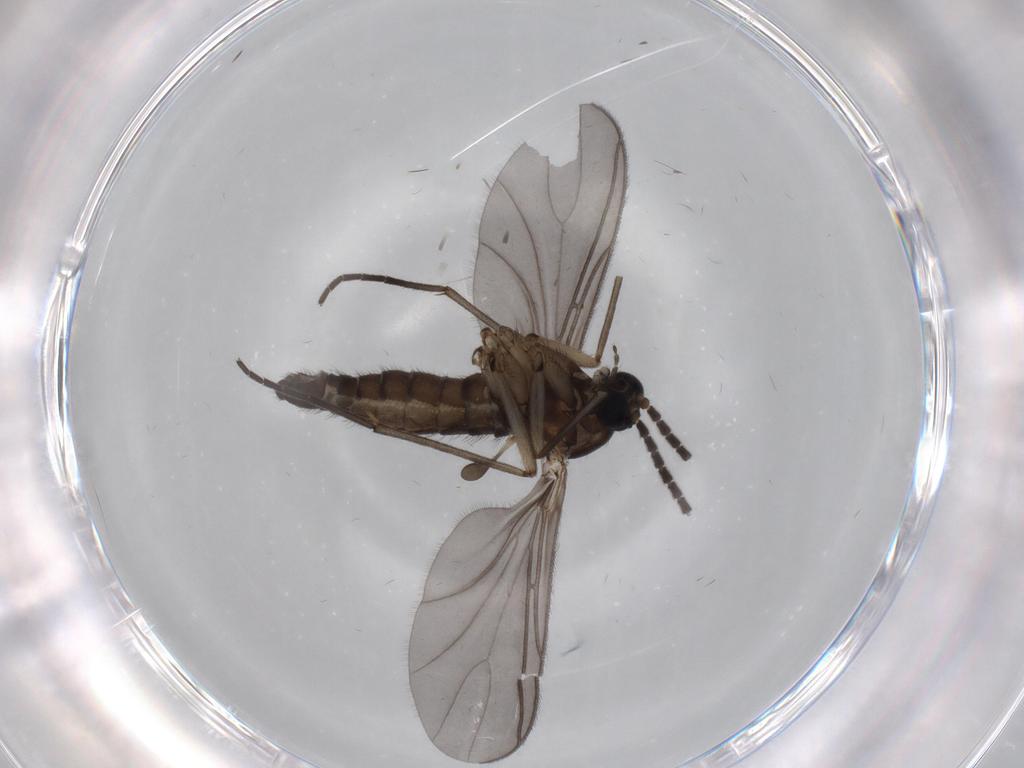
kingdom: Animalia
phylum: Arthropoda
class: Insecta
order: Diptera
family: Sciaridae
